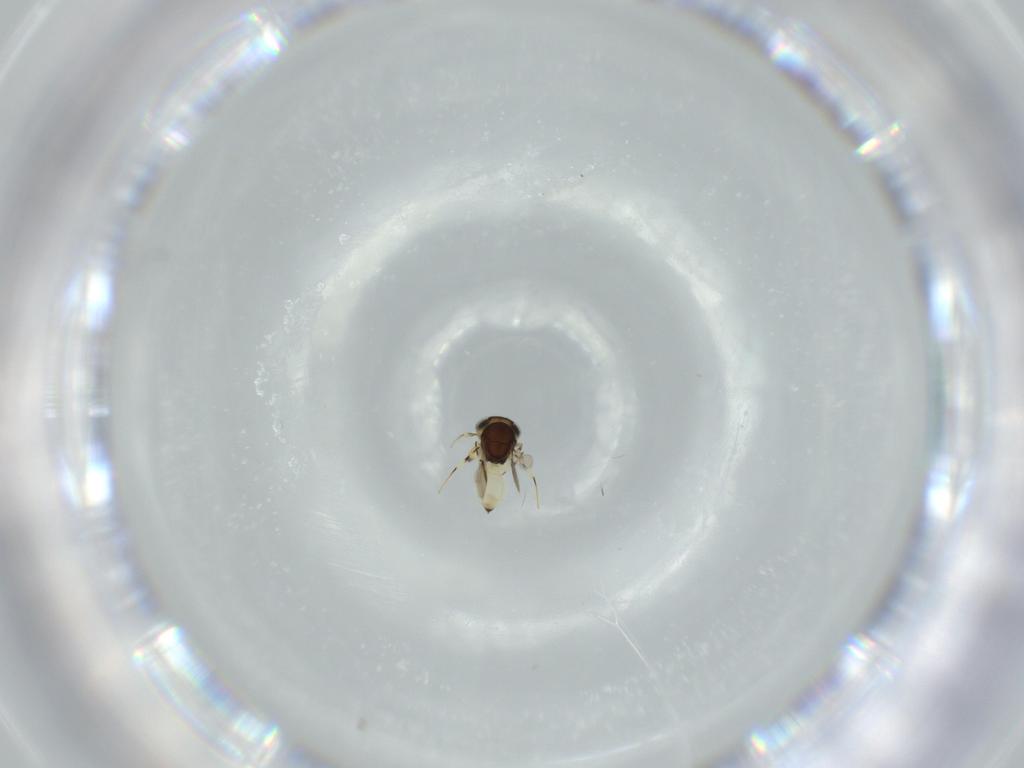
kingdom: Animalia
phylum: Arthropoda
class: Insecta
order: Hymenoptera
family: Scelionidae
